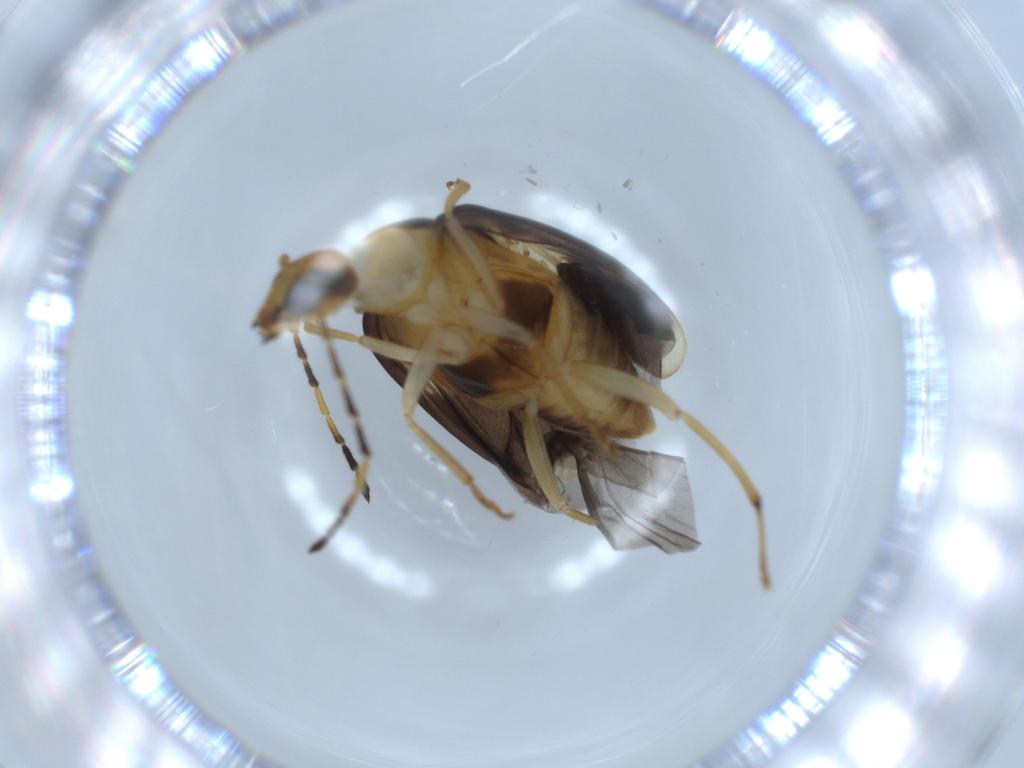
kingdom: Animalia
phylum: Arthropoda
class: Insecta
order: Coleoptera
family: Chrysomelidae
